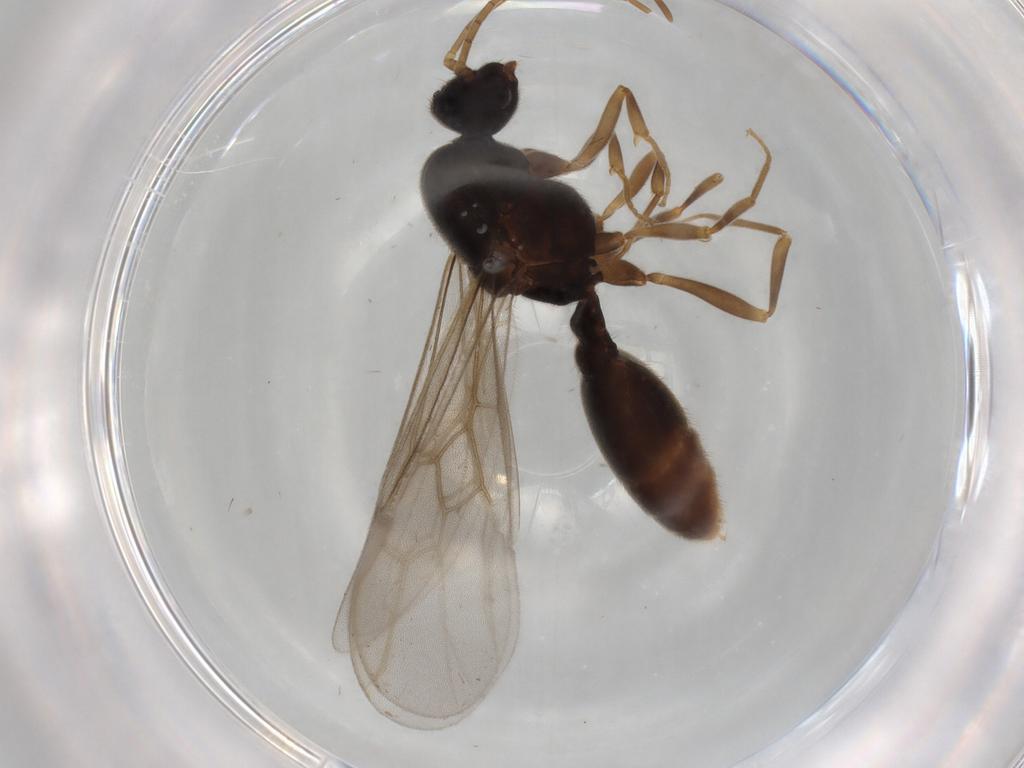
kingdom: Animalia
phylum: Arthropoda
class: Insecta
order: Hymenoptera
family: Formicidae
